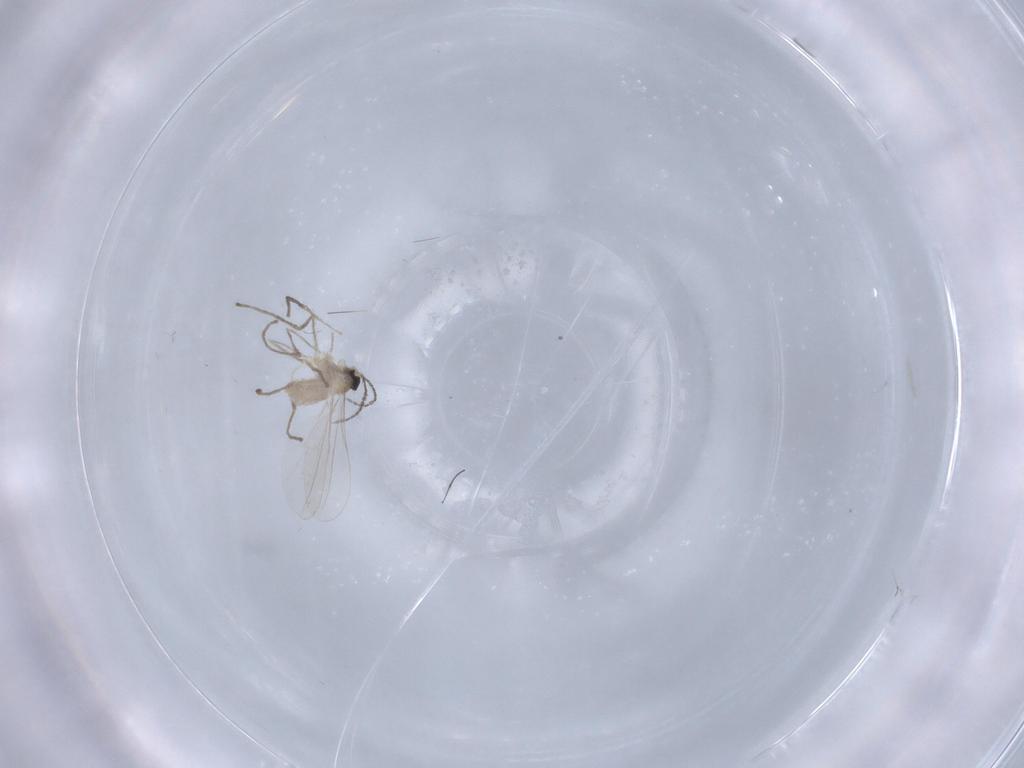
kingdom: Animalia
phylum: Arthropoda
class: Insecta
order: Diptera
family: Ceratopogonidae
